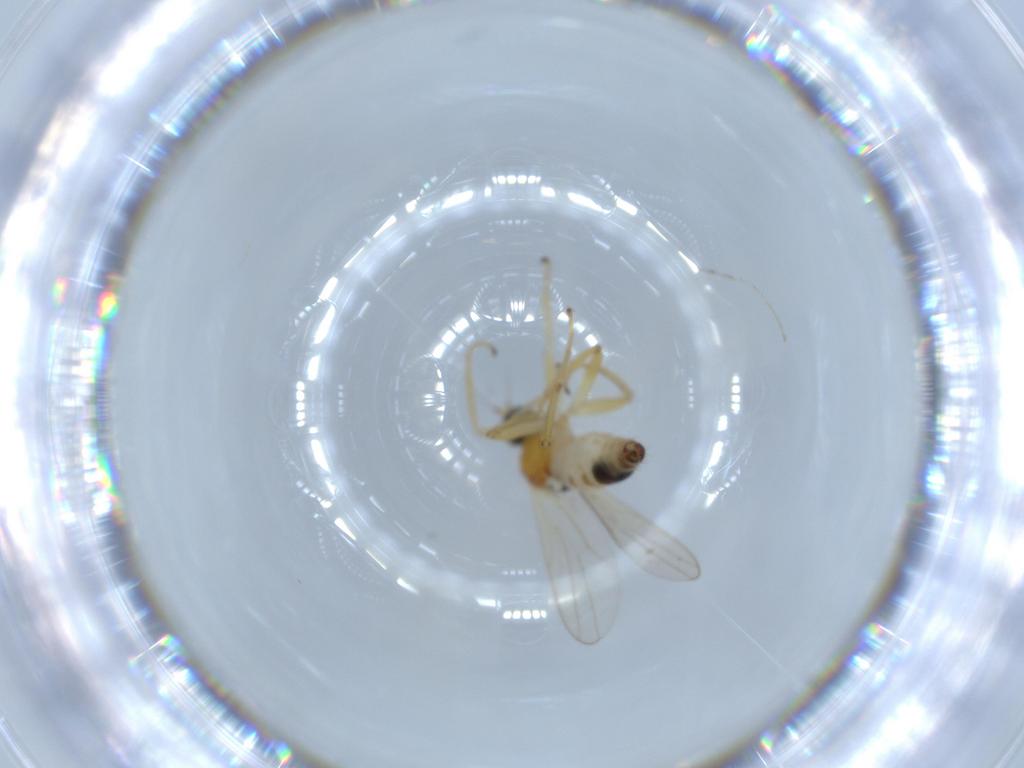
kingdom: Animalia
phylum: Arthropoda
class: Insecta
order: Diptera
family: Hybotidae
